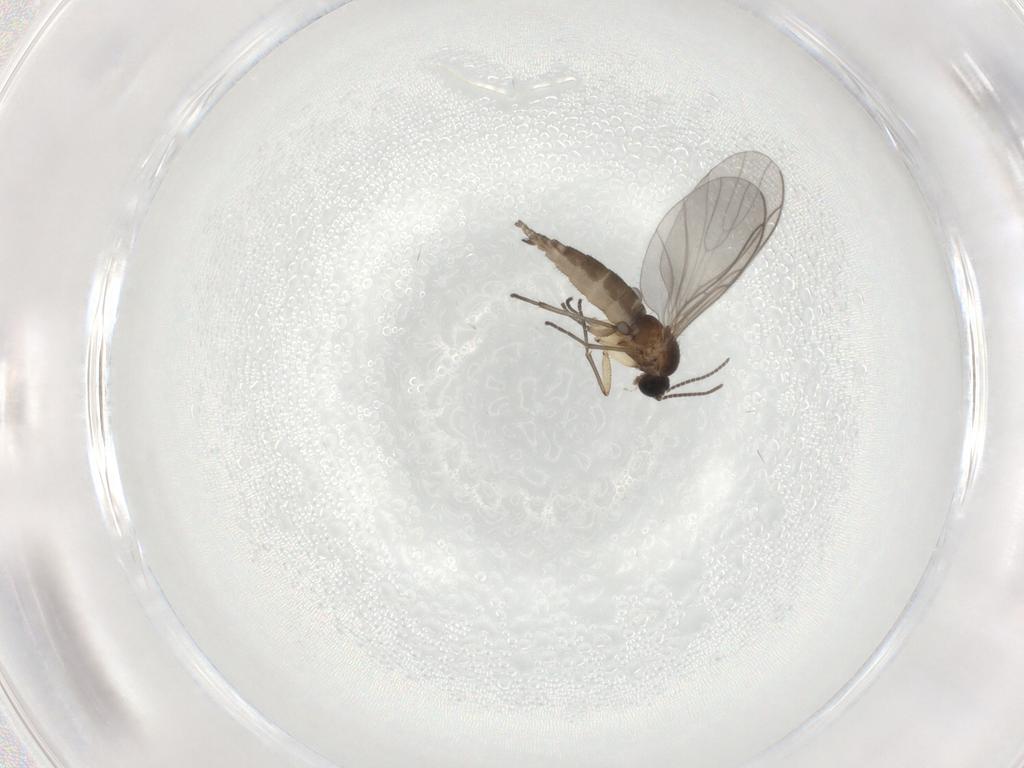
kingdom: Animalia
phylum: Arthropoda
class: Insecta
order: Diptera
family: Sciaridae
